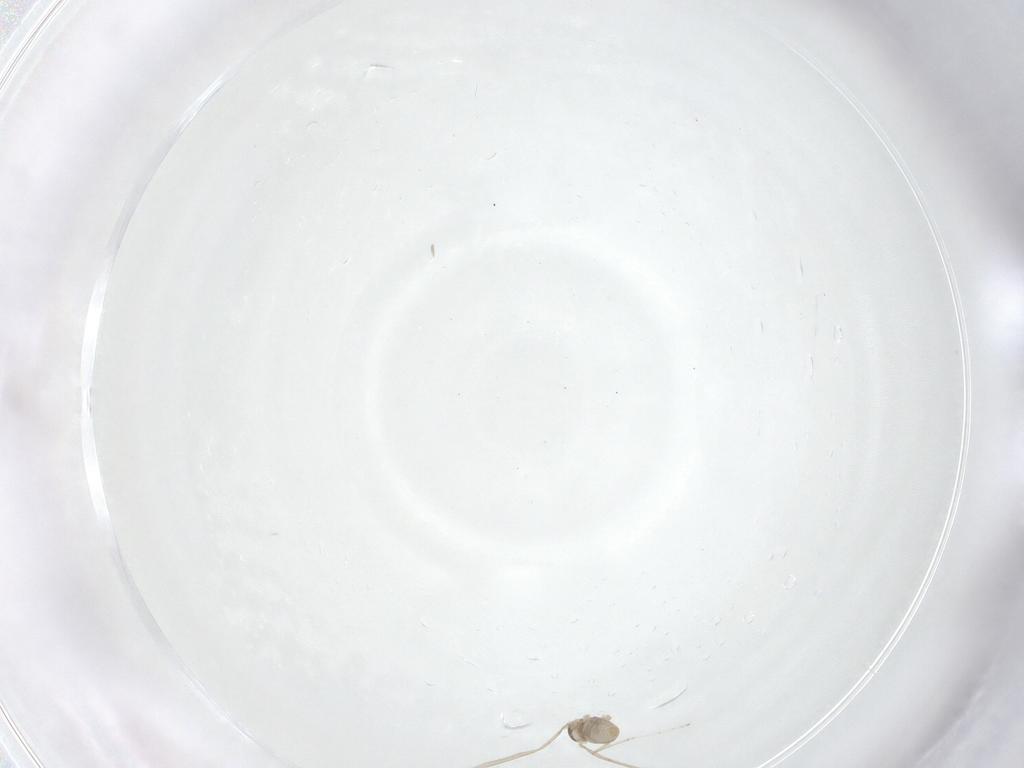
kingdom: Animalia
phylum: Arthropoda
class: Insecta
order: Diptera
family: Cecidomyiidae
